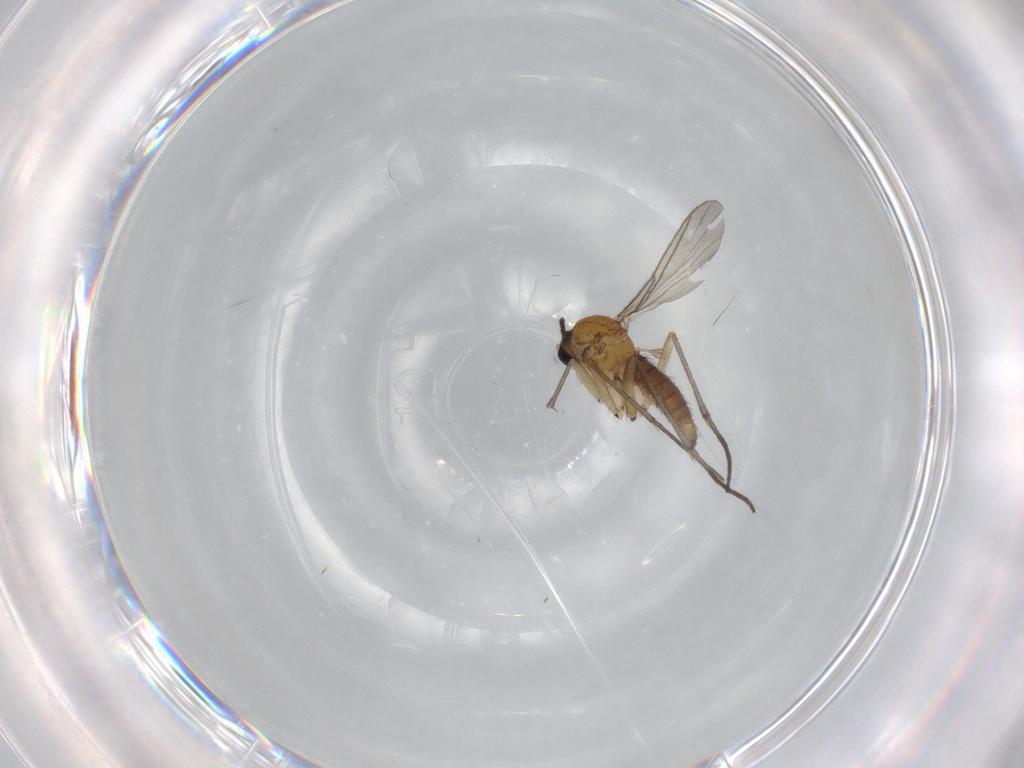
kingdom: Animalia
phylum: Arthropoda
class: Insecta
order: Diptera
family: Sciaridae
